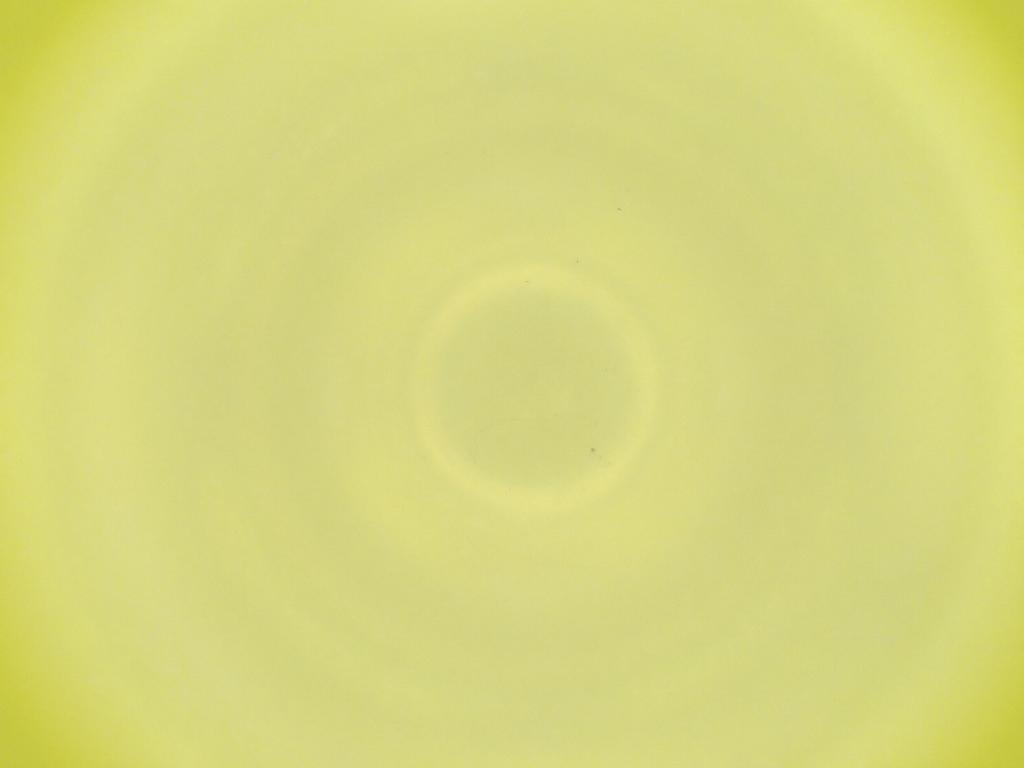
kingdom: Animalia
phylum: Arthropoda
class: Insecta
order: Diptera
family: Cecidomyiidae
